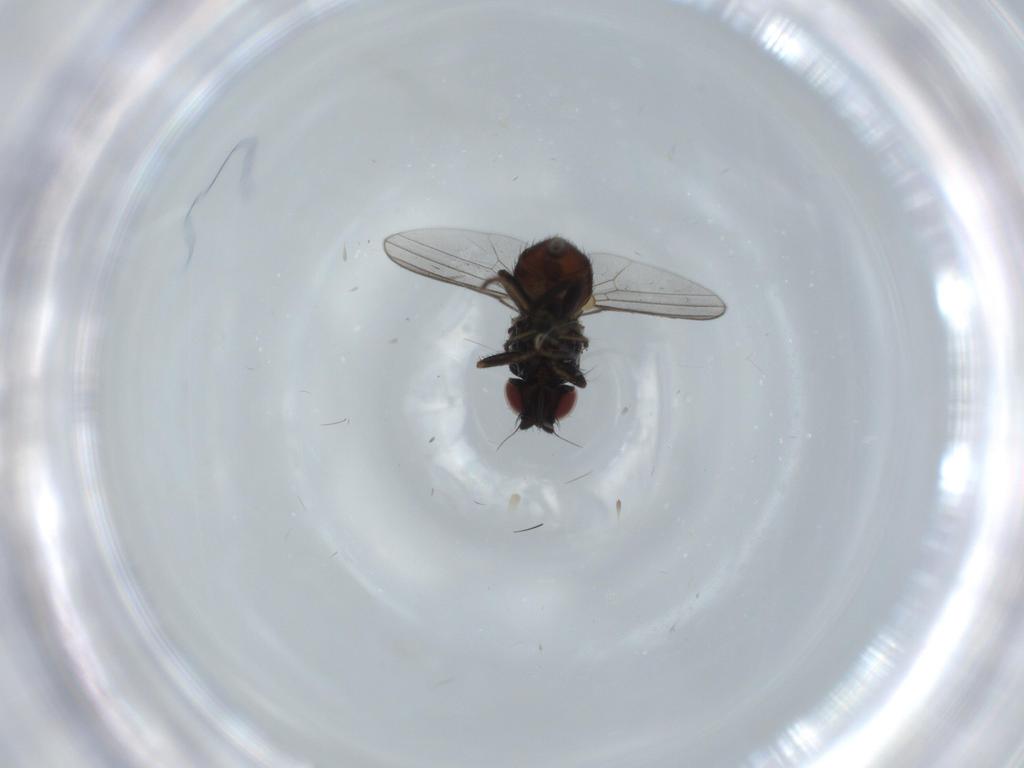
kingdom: Animalia
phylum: Arthropoda
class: Insecta
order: Diptera
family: Milichiidae
